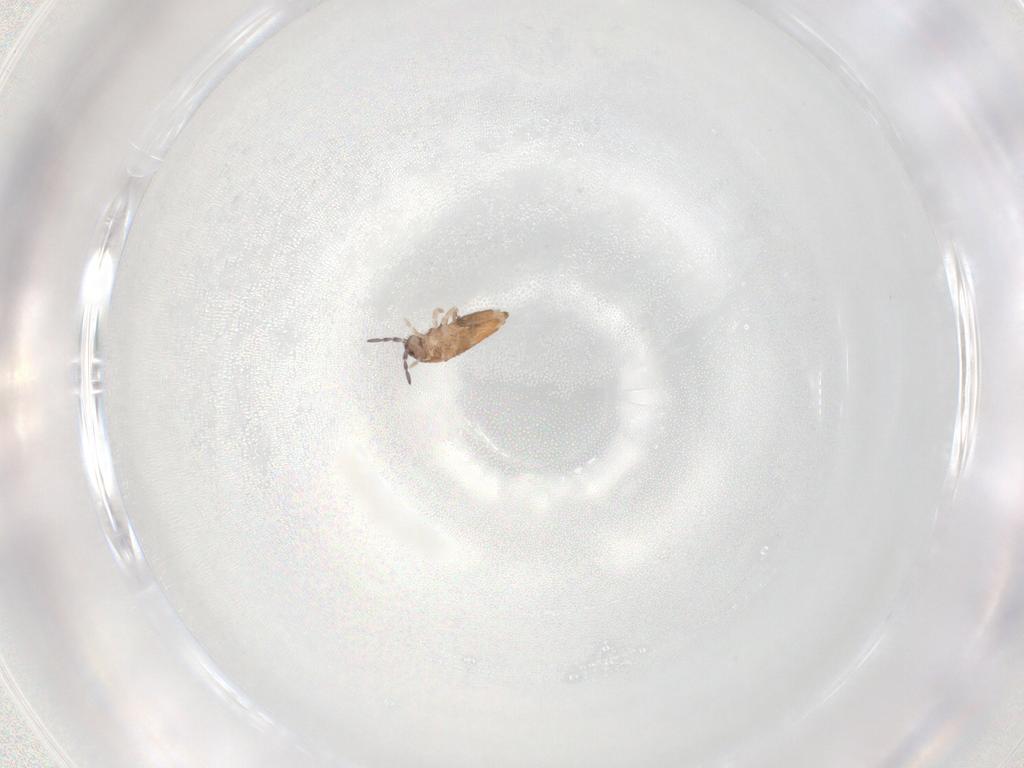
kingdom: Animalia
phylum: Arthropoda
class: Collembola
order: Entomobryomorpha
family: Entomobryidae
